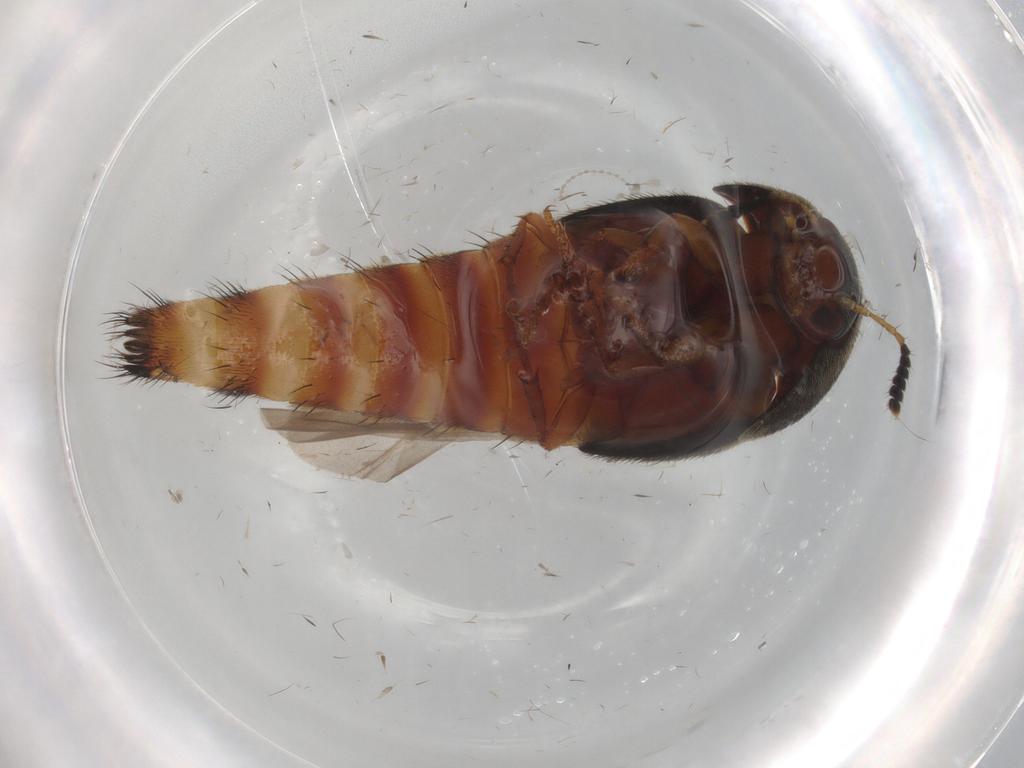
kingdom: Animalia
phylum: Arthropoda
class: Insecta
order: Coleoptera
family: Staphylinidae
